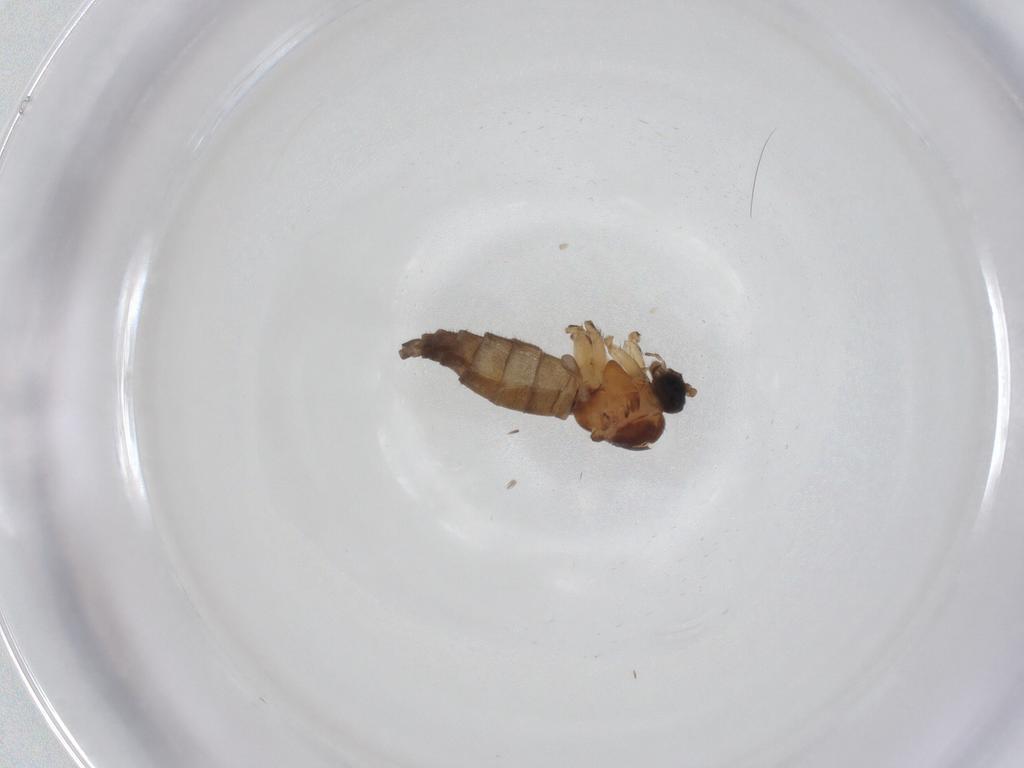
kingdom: Animalia
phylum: Arthropoda
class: Insecta
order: Diptera
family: Sciaridae
